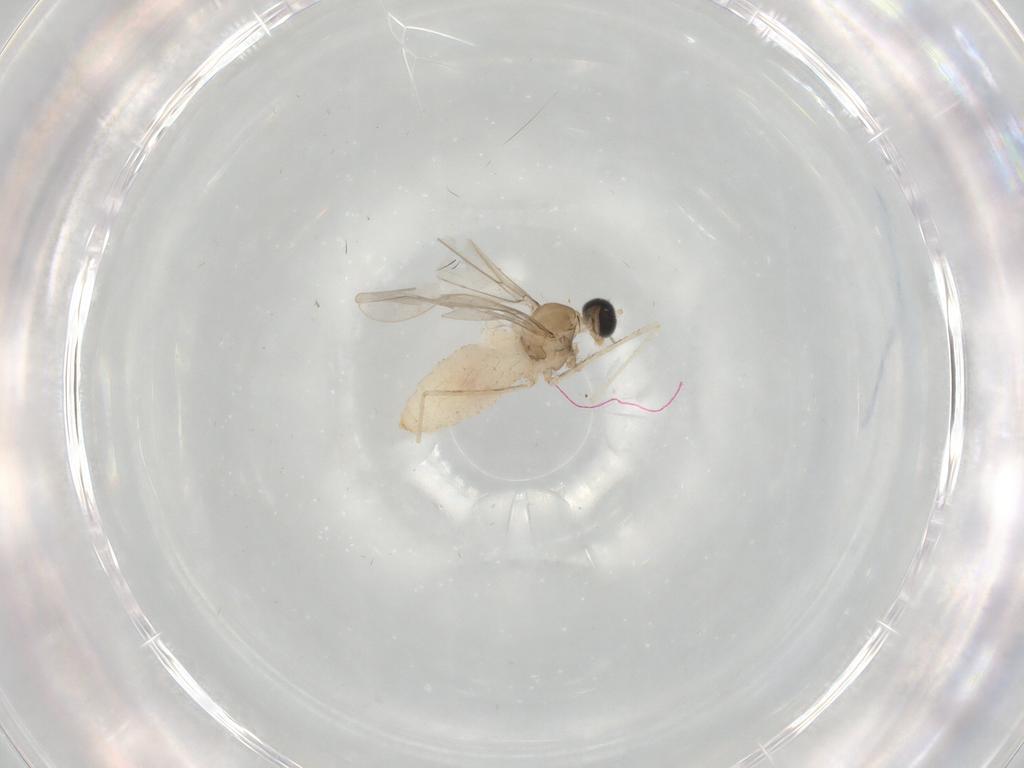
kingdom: Animalia
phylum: Arthropoda
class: Insecta
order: Diptera
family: Cecidomyiidae
